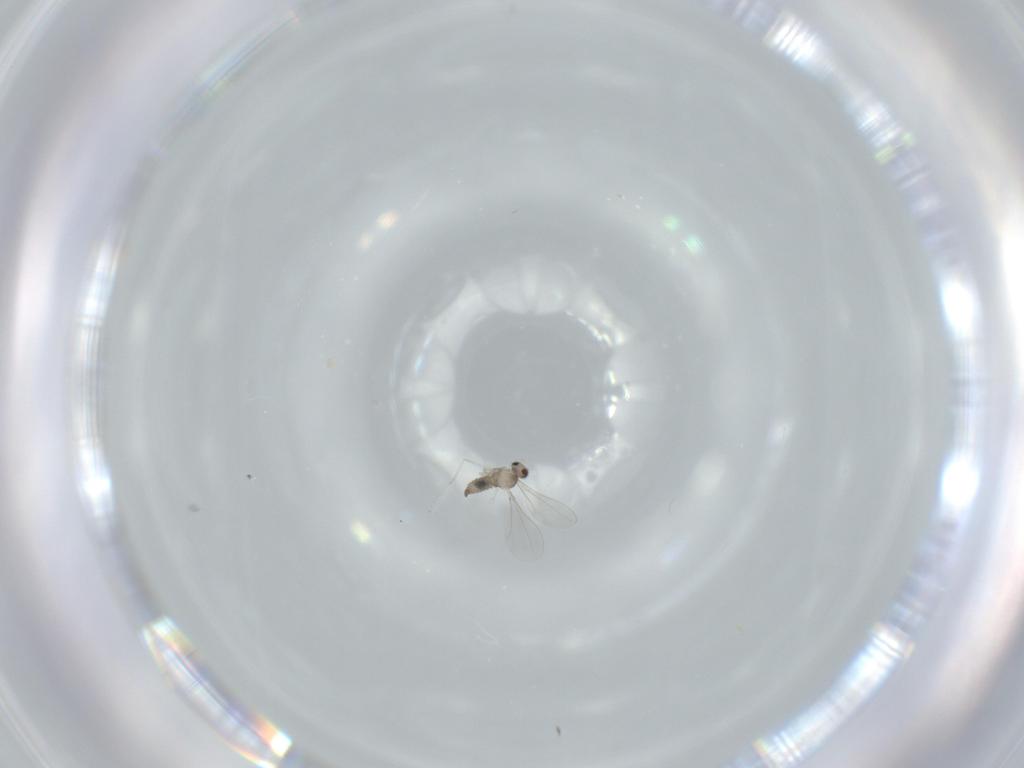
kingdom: Animalia
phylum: Arthropoda
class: Insecta
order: Diptera
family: Cecidomyiidae
